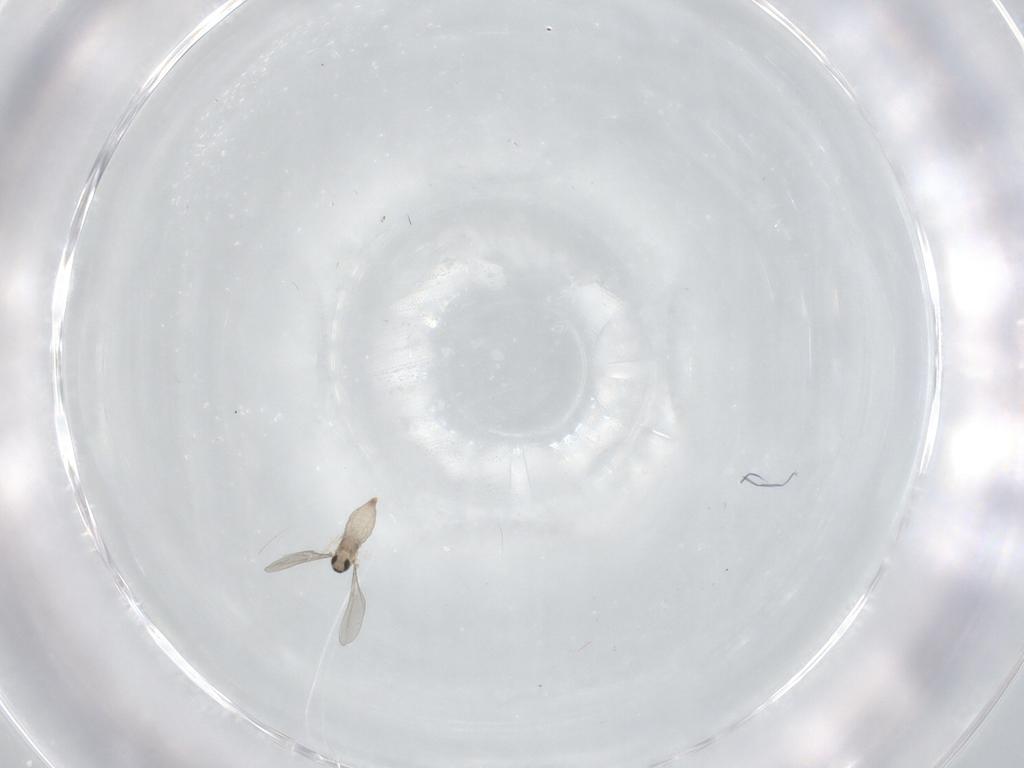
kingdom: Animalia
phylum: Arthropoda
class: Insecta
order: Diptera
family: Cecidomyiidae
